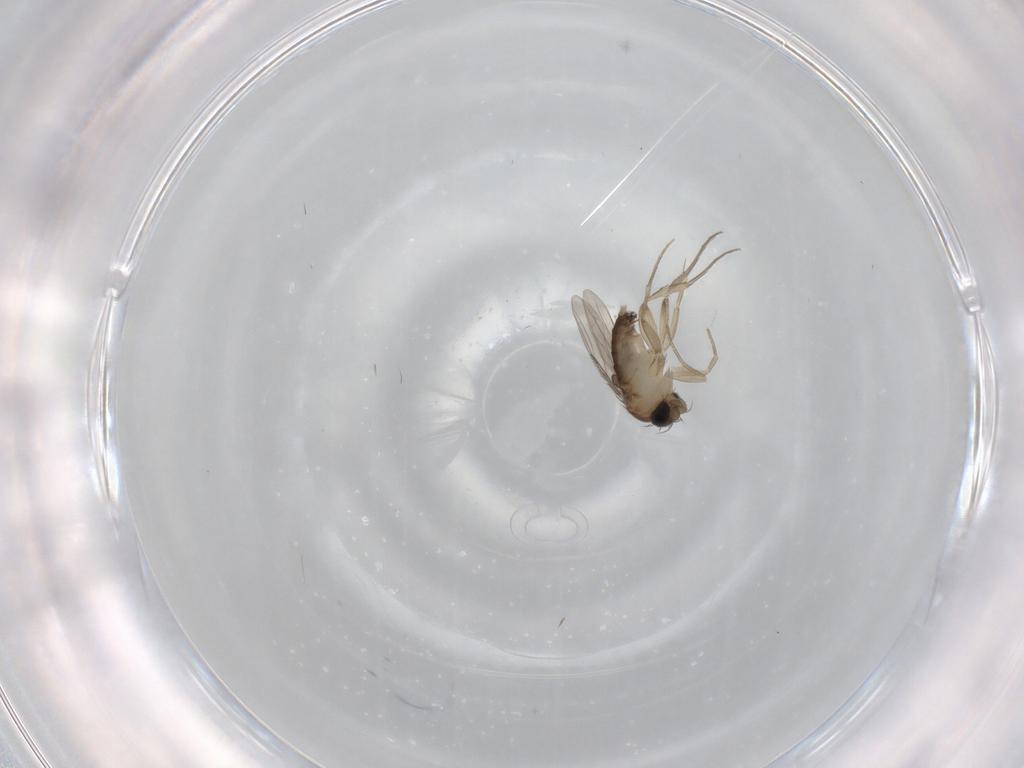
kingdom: Animalia
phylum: Arthropoda
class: Insecta
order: Diptera
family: Phoridae
